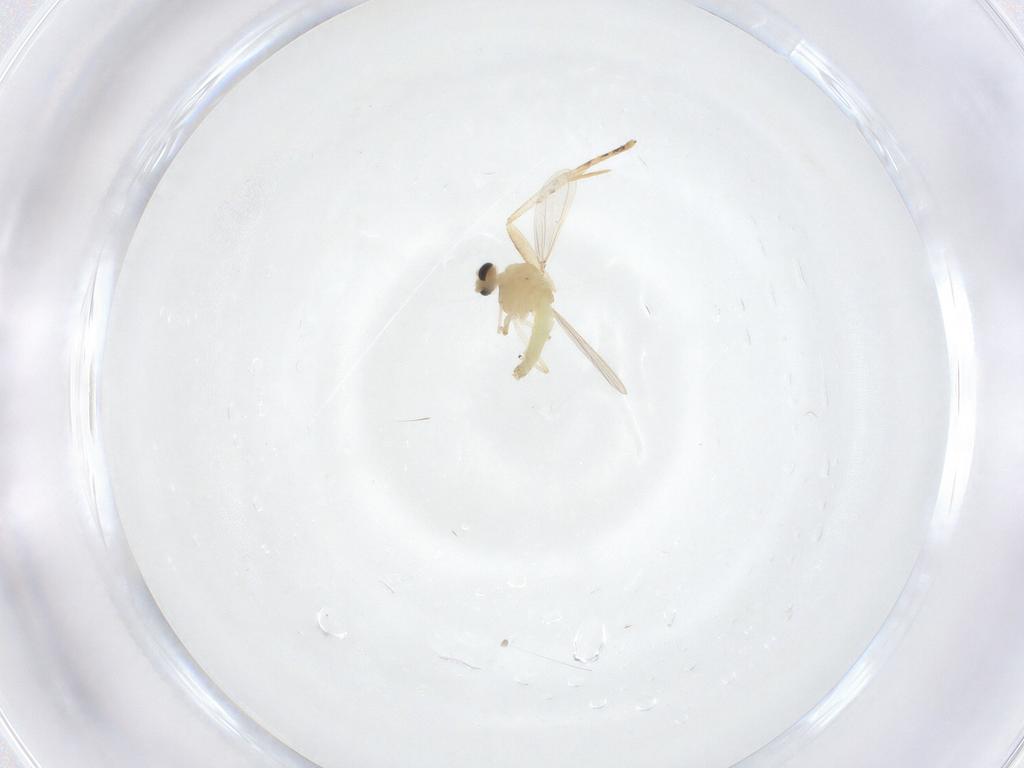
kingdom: Animalia
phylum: Arthropoda
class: Insecta
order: Diptera
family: Chironomidae
